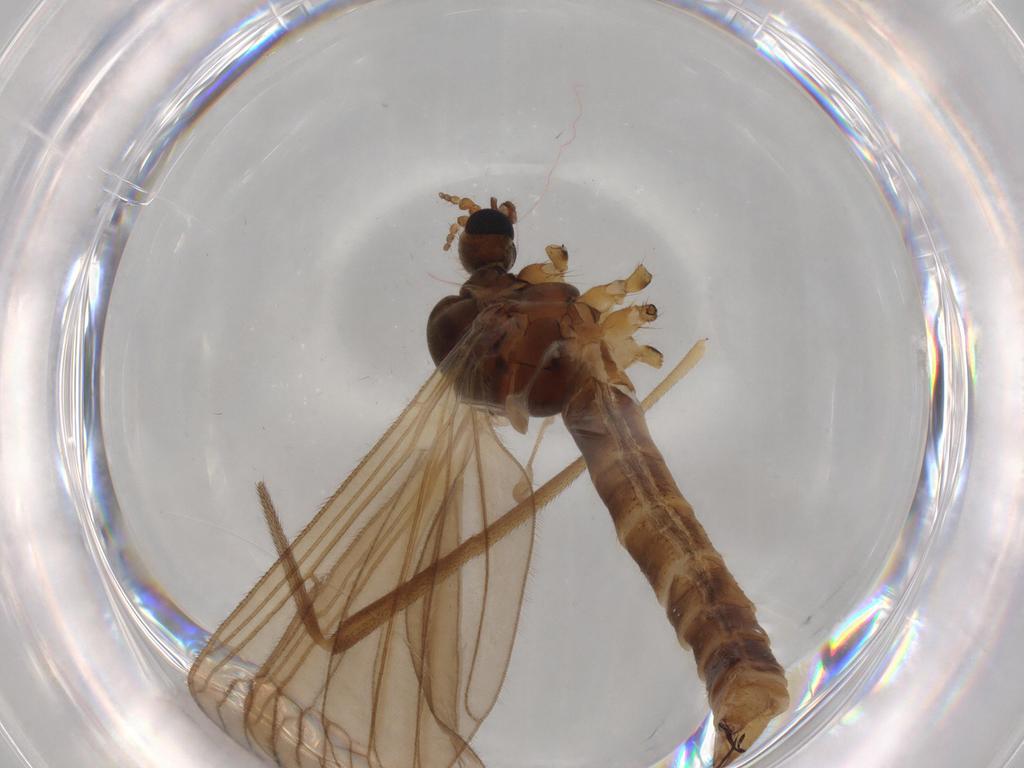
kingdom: Animalia
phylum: Arthropoda
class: Insecta
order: Diptera
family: Limoniidae
